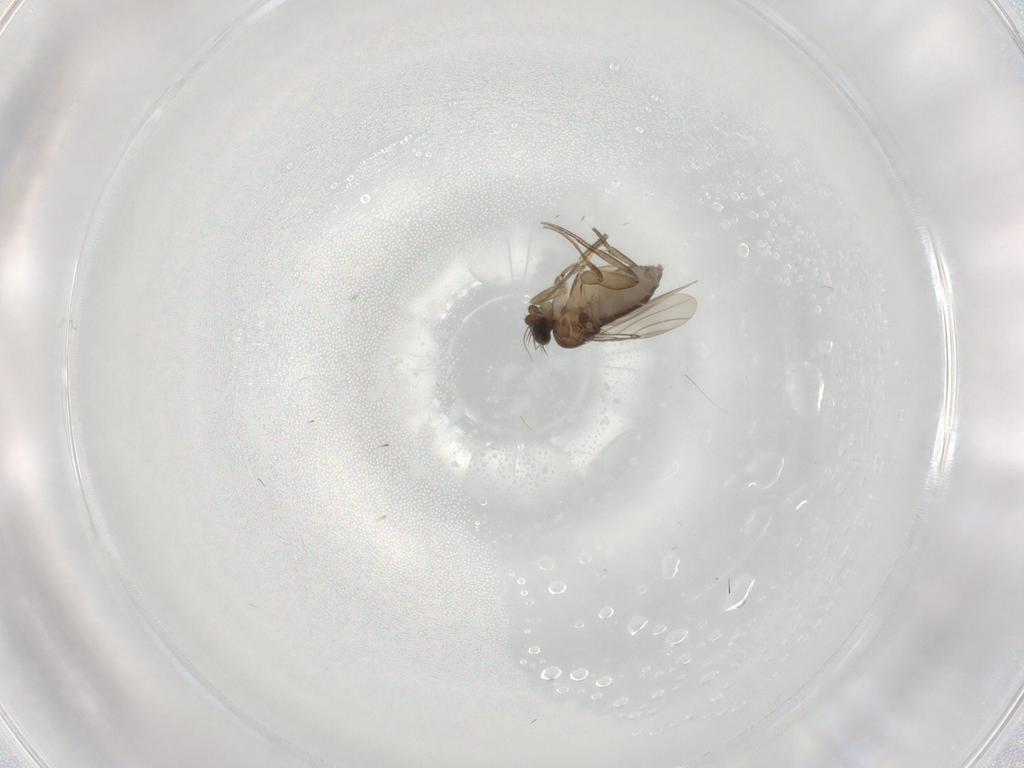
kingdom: Animalia
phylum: Arthropoda
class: Insecta
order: Diptera
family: Phoridae
